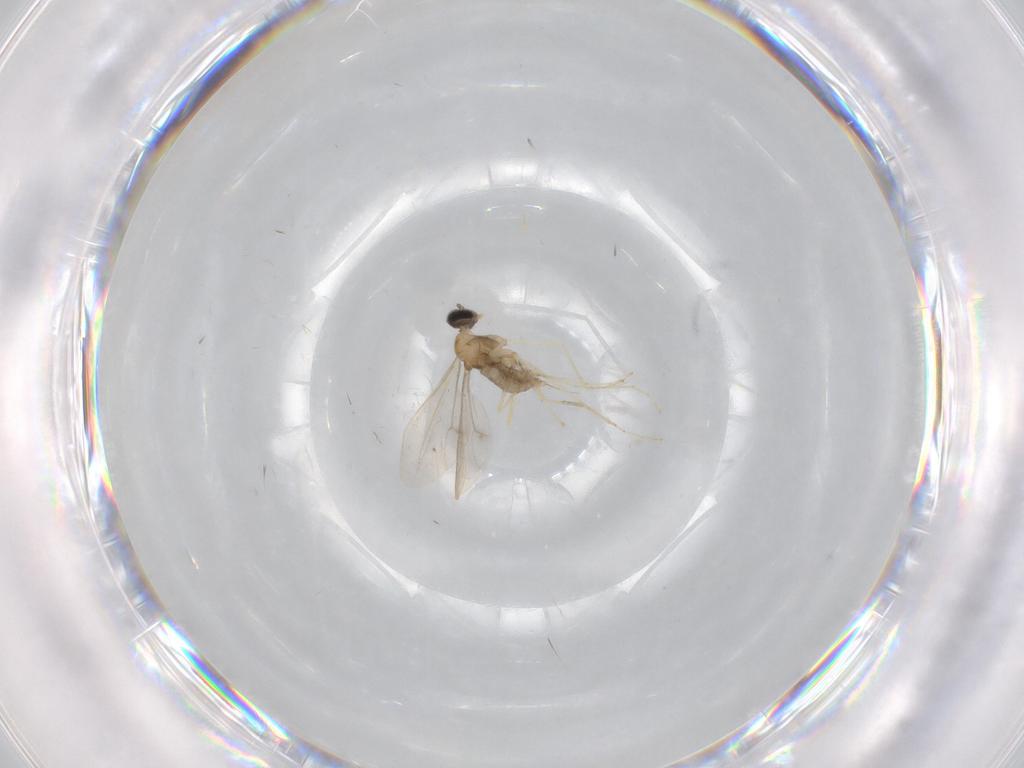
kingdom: Animalia
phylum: Arthropoda
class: Insecta
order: Diptera
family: Cecidomyiidae
